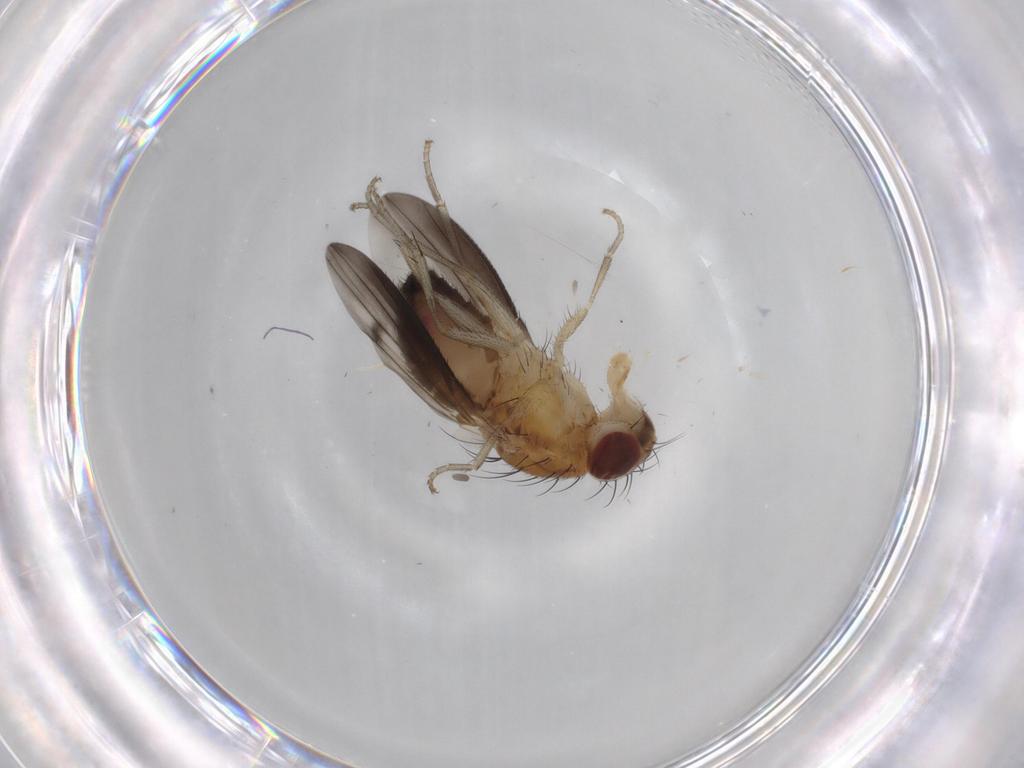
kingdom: Animalia
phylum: Arthropoda
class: Insecta
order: Diptera
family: Heleomyzidae
